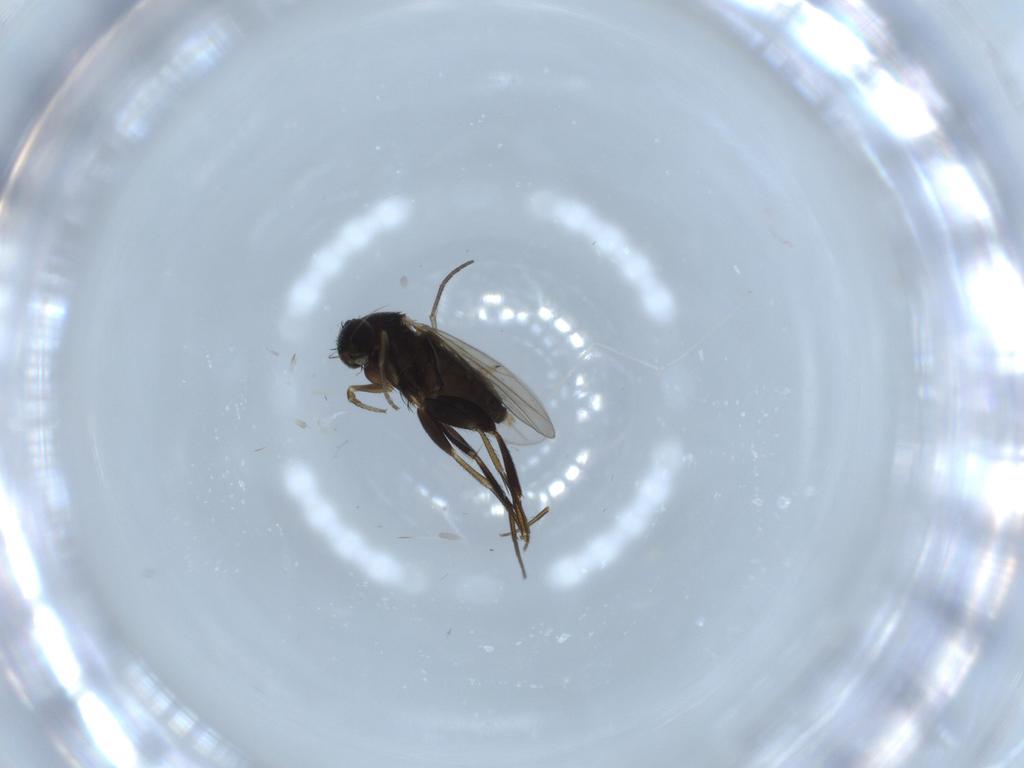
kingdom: Animalia
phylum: Arthropoda
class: Insecta
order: Diptera
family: Phoridae
